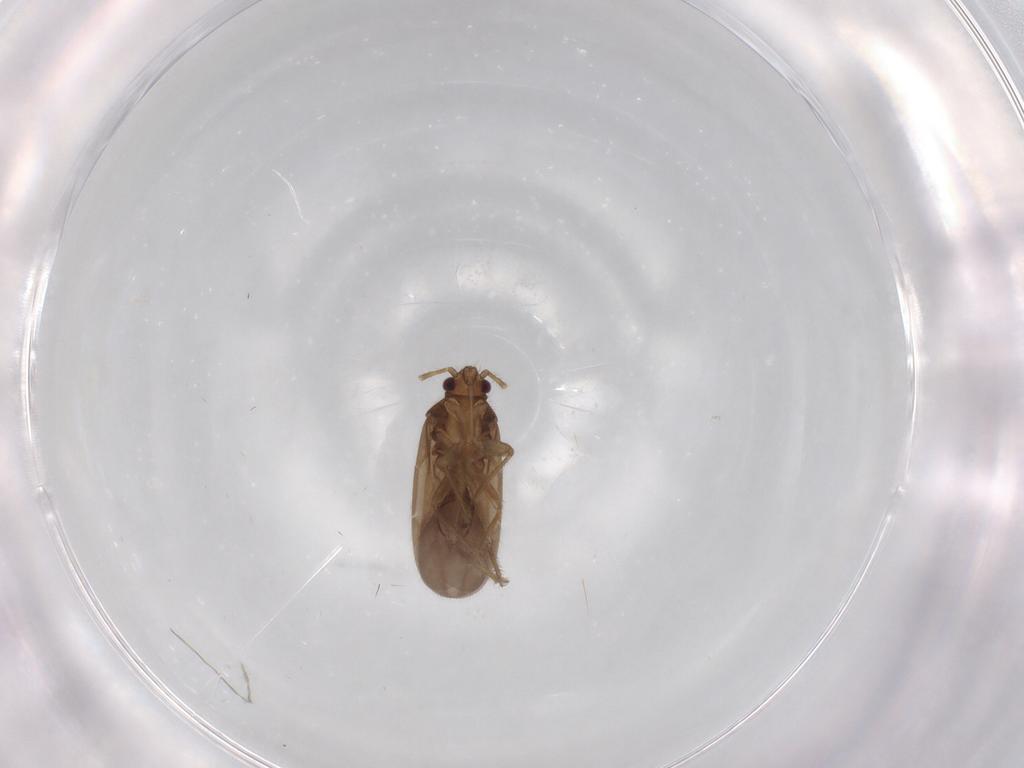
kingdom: Animalia
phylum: Arthropoda
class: Insecta
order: Hemiptera
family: Ceratocombidae
